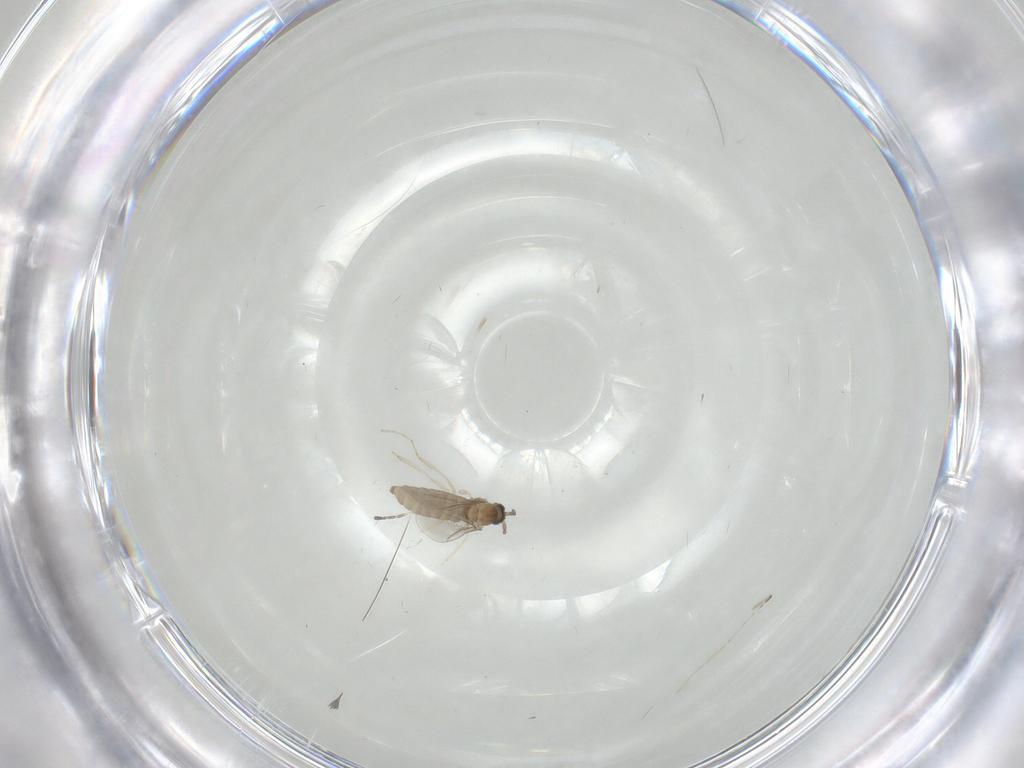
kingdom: Animalia
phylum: Arthropoda
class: Insecta
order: Diptera
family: Cecidomyiidae
